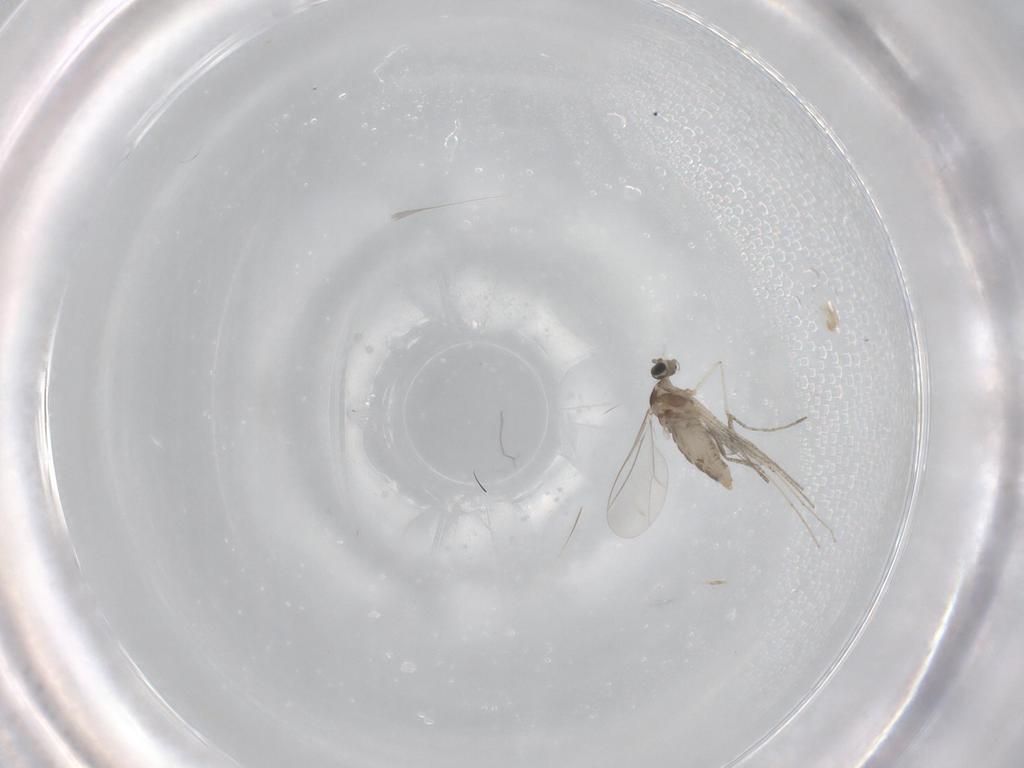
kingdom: Animalia
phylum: Arthropoda
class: Insecta
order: Diptera
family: Cecidomyiidae
